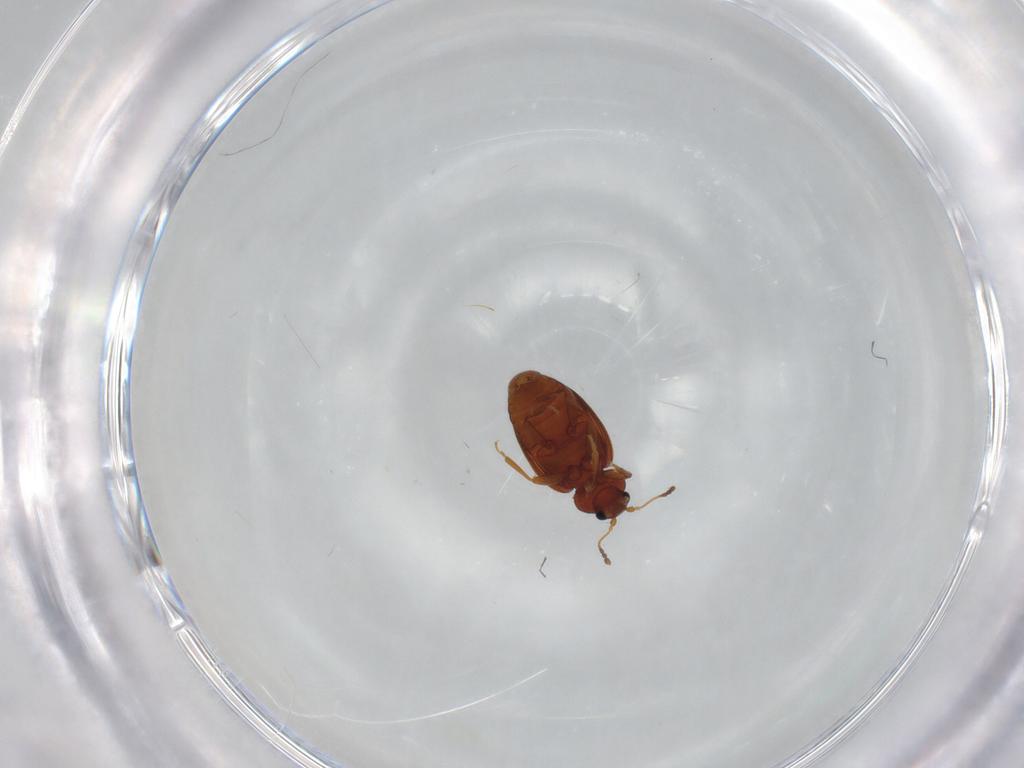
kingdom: Animalia
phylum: Arthropoda
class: Insecta
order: Coleoptera
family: Latridiidae
